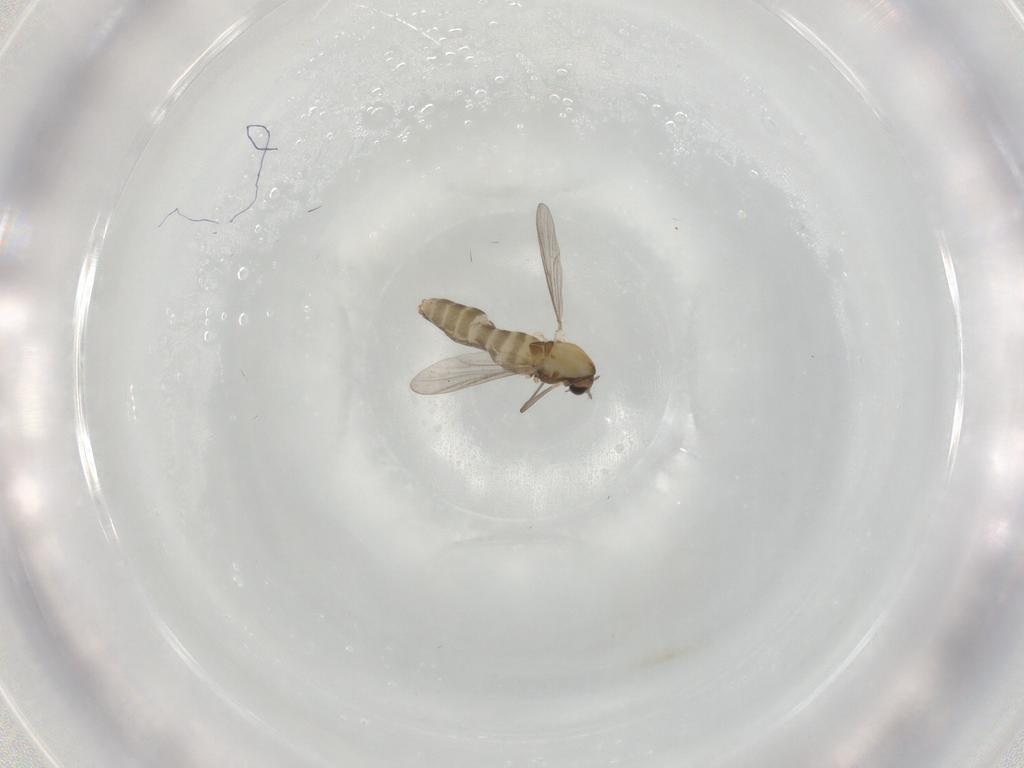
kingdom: Animalia
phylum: Arthropoda
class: Insecta
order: Diptera
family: Chironomidae
